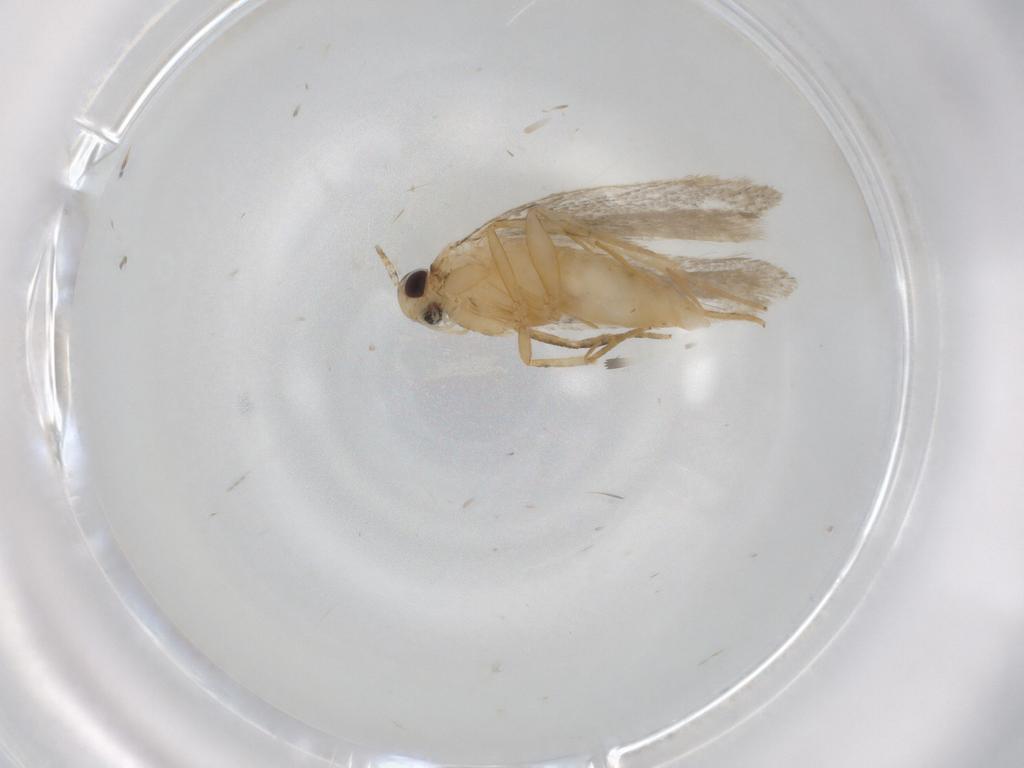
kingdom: Animalia
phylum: Arthropoda
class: Insecta
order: Lepidoptera
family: Autostichidae
